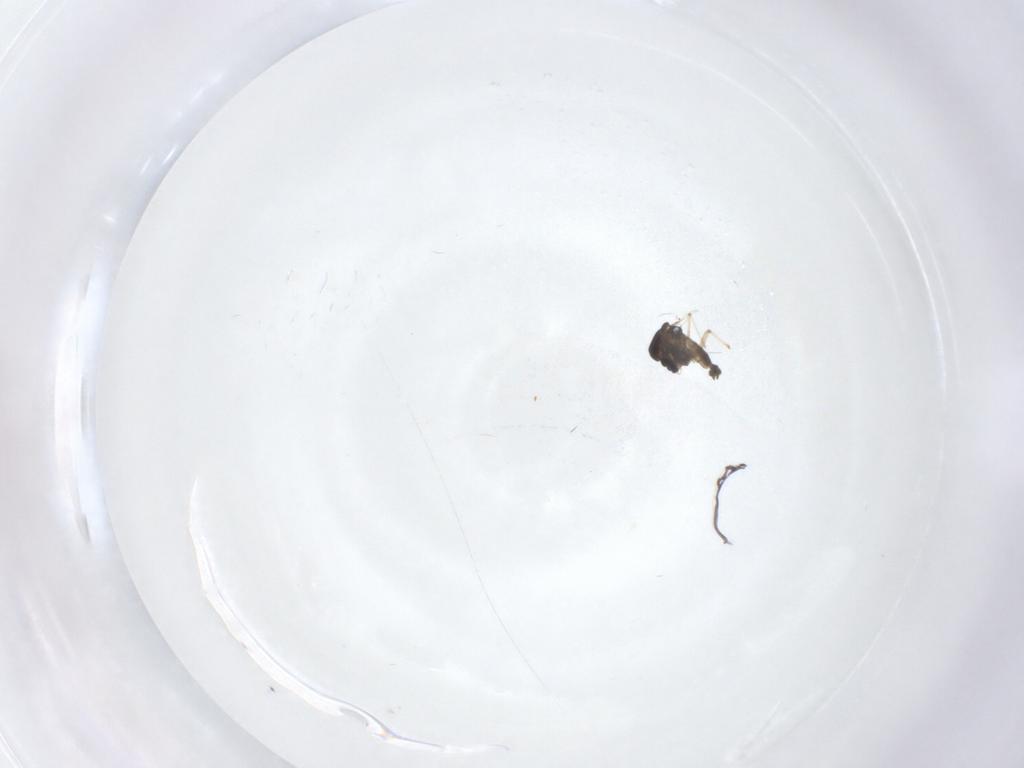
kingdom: Animalia
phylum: Arthropoda
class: Insecta
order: Diptera
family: Chironomidae
